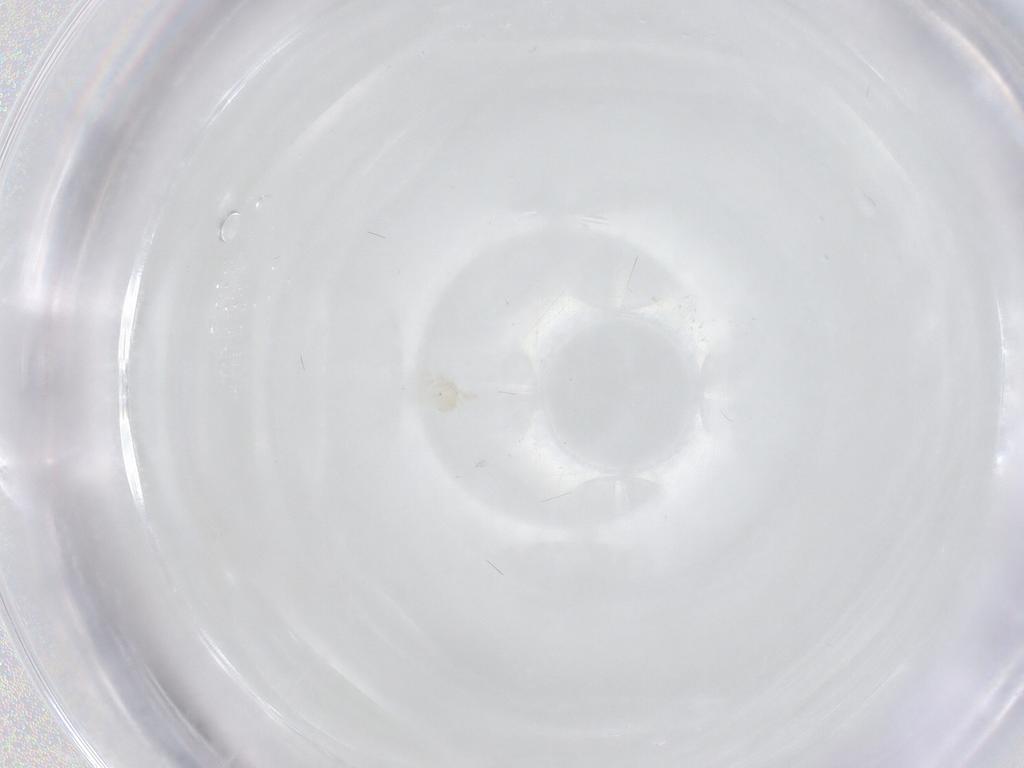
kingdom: Animalia
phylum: Arthropoda
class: Arachnida
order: Trombidiformes
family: Anystidae
